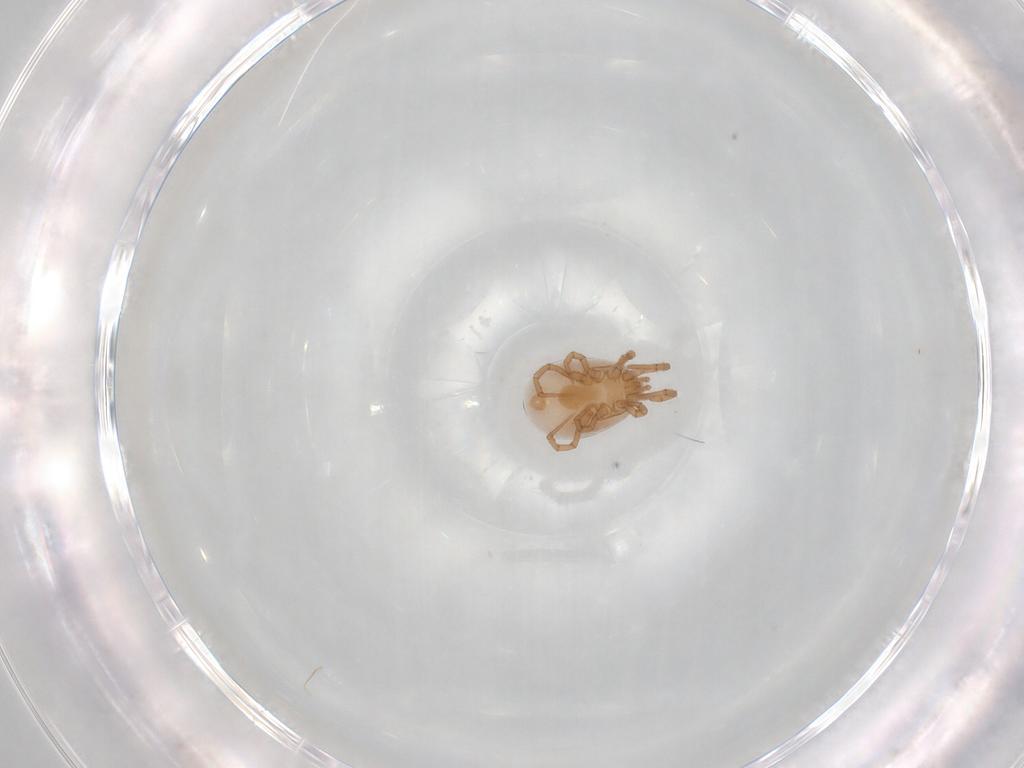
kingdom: Animalia
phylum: Arthropoda
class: Arachnida
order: Mesostigmata
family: Parasitidae
